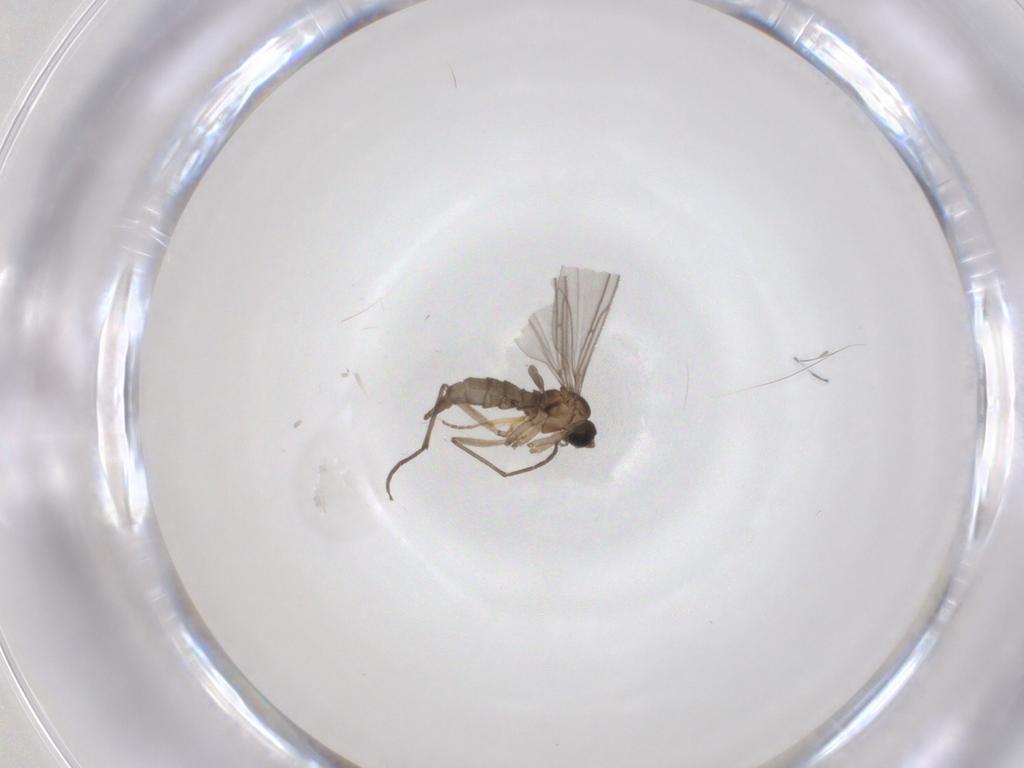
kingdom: Animalia
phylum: Arthropoda
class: Insecta
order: Diptera
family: Sciaridae
